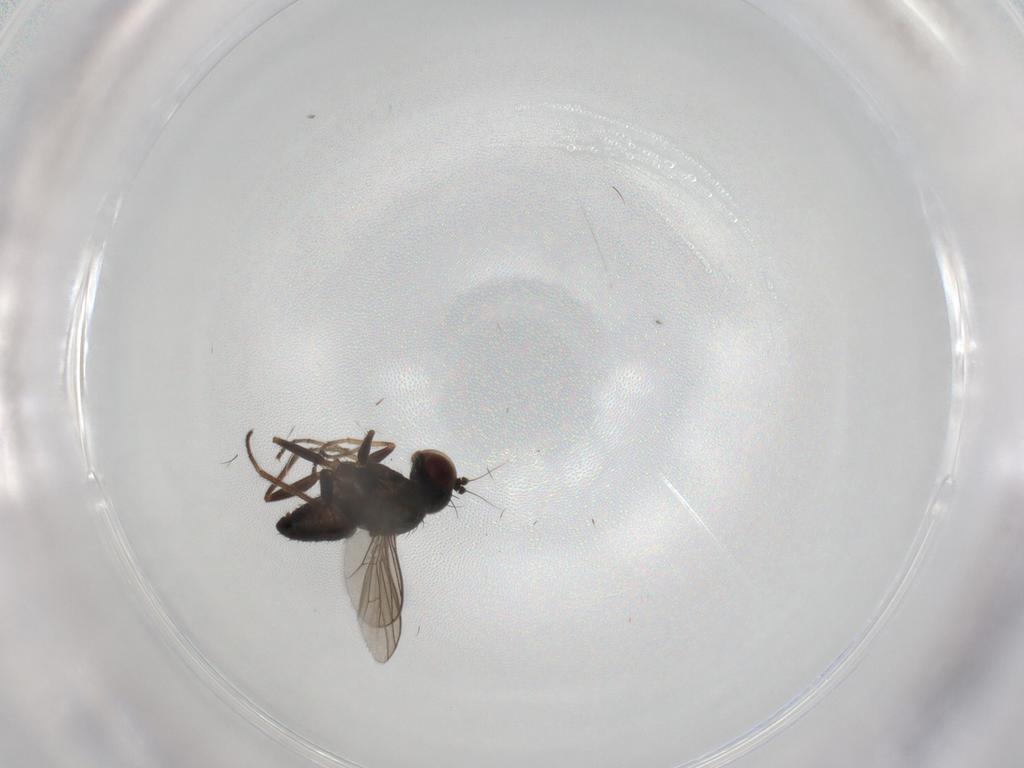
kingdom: Animalia
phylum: Arthropoda
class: Insecta
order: Diptera
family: Dolichopodidae
